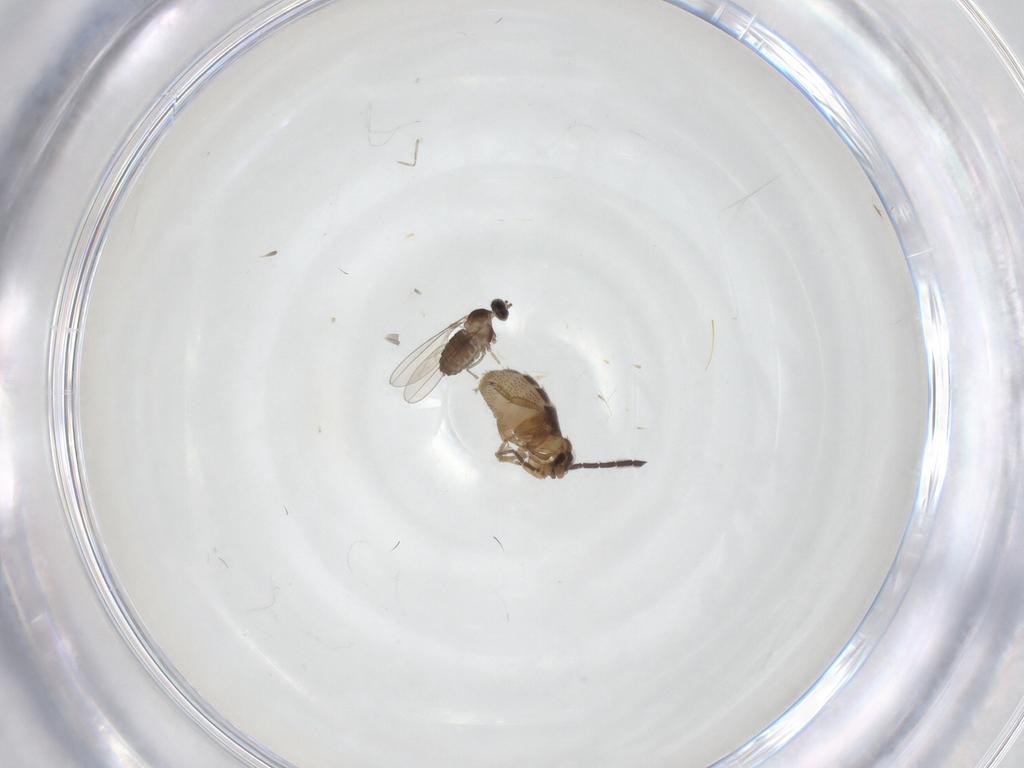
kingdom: Animalia
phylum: Arthropoda
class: Insecta
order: Diptera
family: Cecidomyiidae
